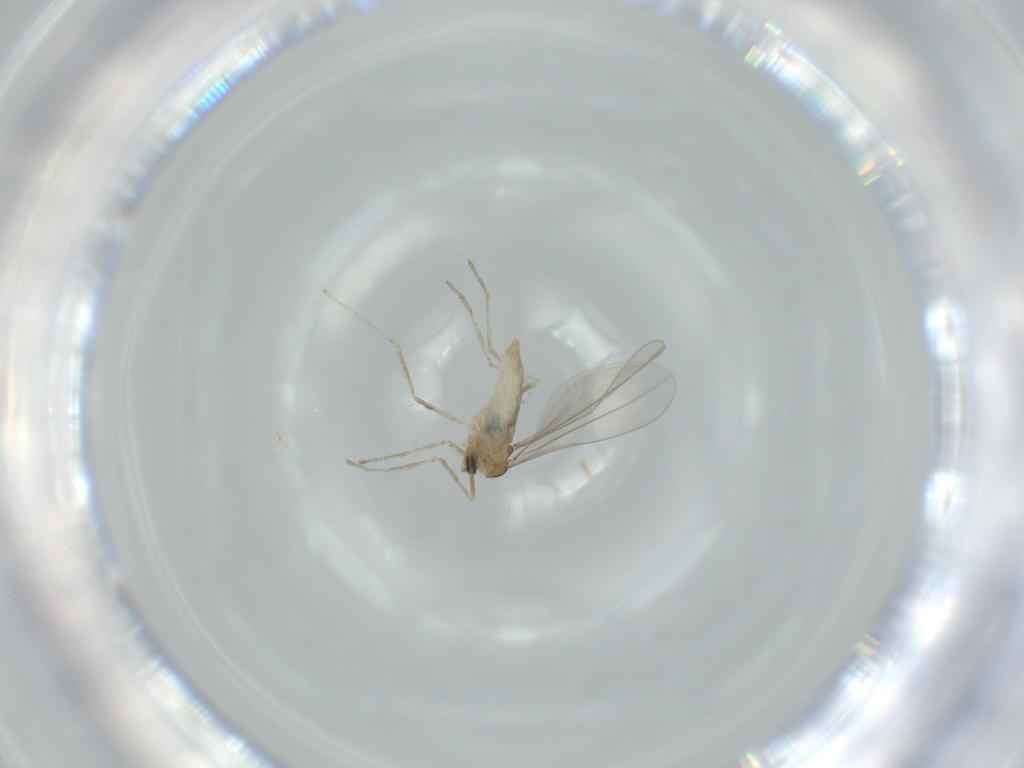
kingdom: Animalia
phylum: Arthropoda
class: Insecta
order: Diptera
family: Cecidomyiidae
